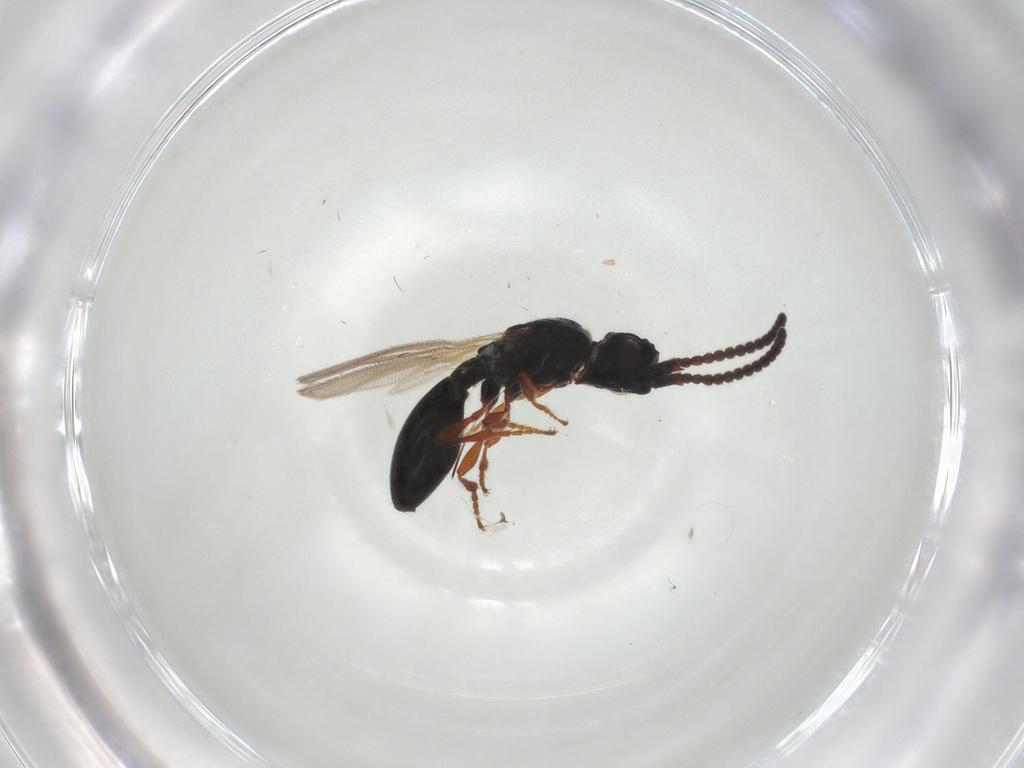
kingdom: Animalia
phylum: Arthropoda
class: Insecta
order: Hymenoptera
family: Diapriidae
